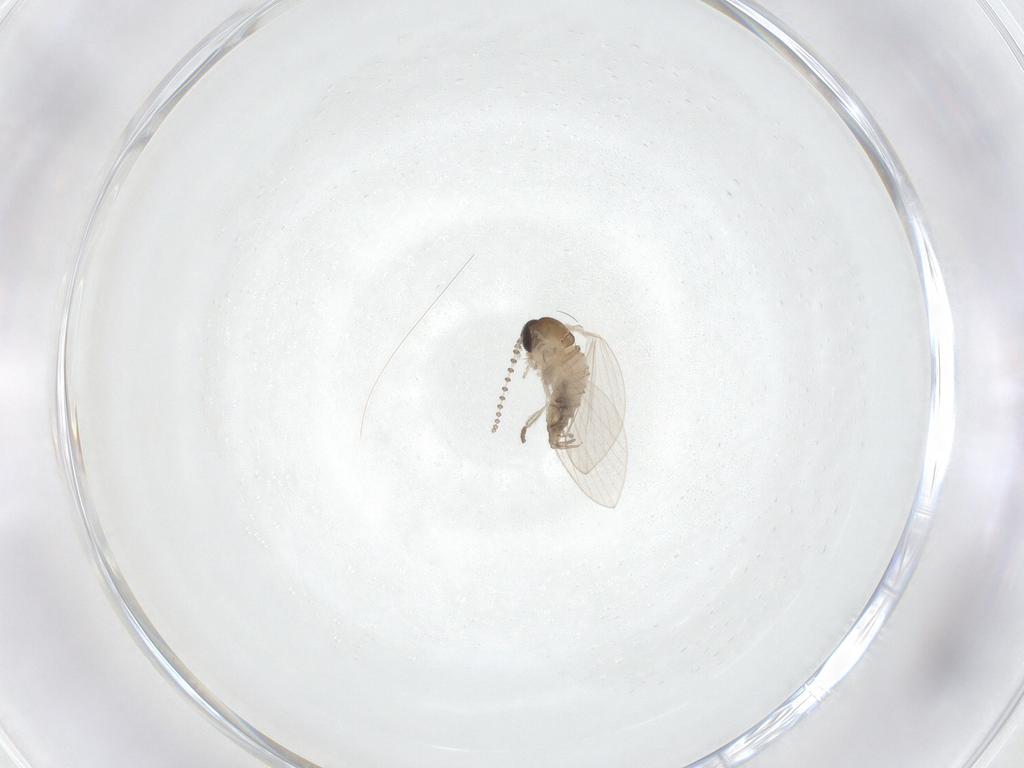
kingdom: Animalia
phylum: Arthropoda
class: Insecta
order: Diptera
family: Psychodidae
